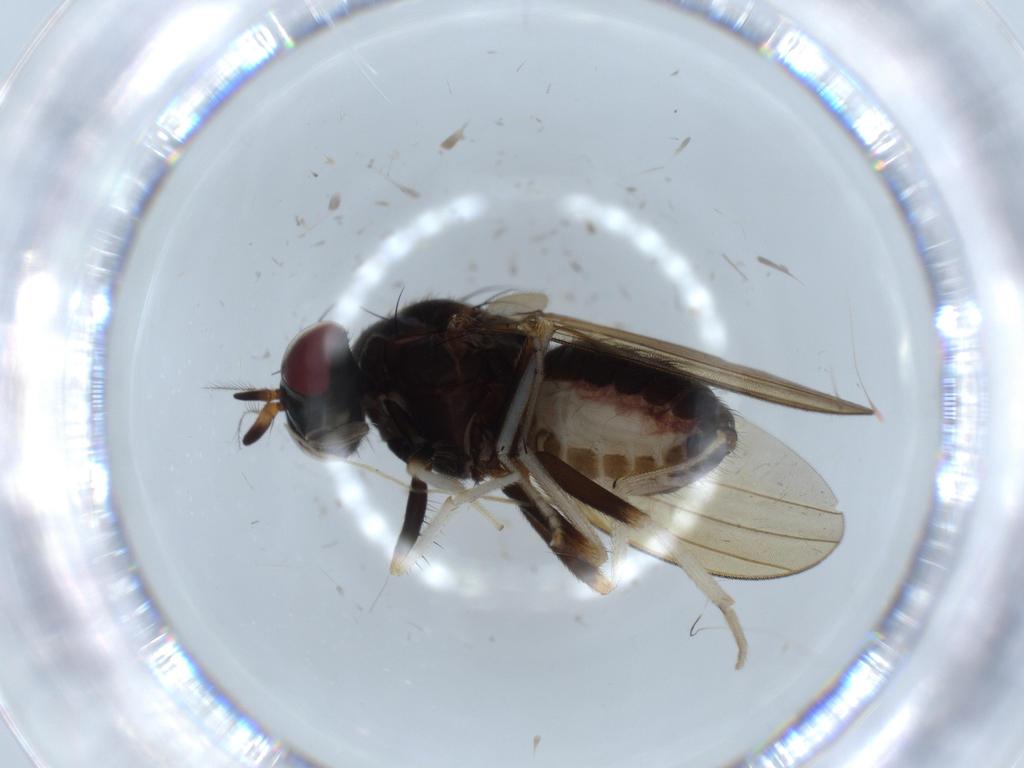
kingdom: Animalia
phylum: Arthropoda
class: Insecta
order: Diptera
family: Lauxaniidae
